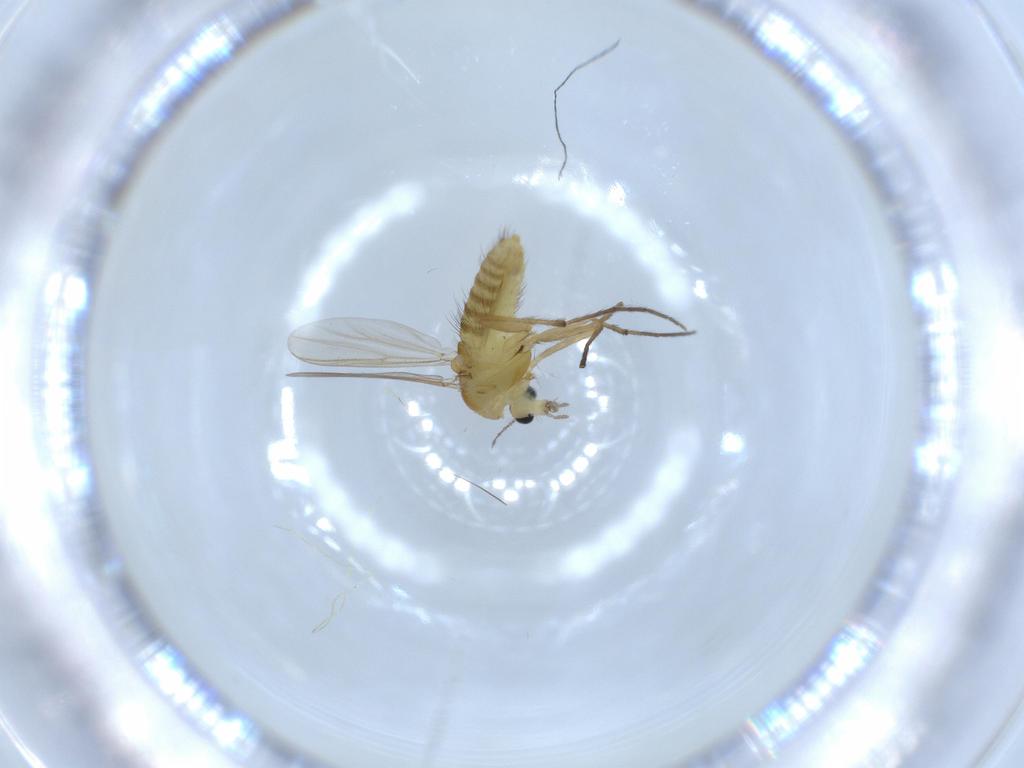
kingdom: Animalia
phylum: Arthropoda
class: Insecta
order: Diptera
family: Chironomidae
